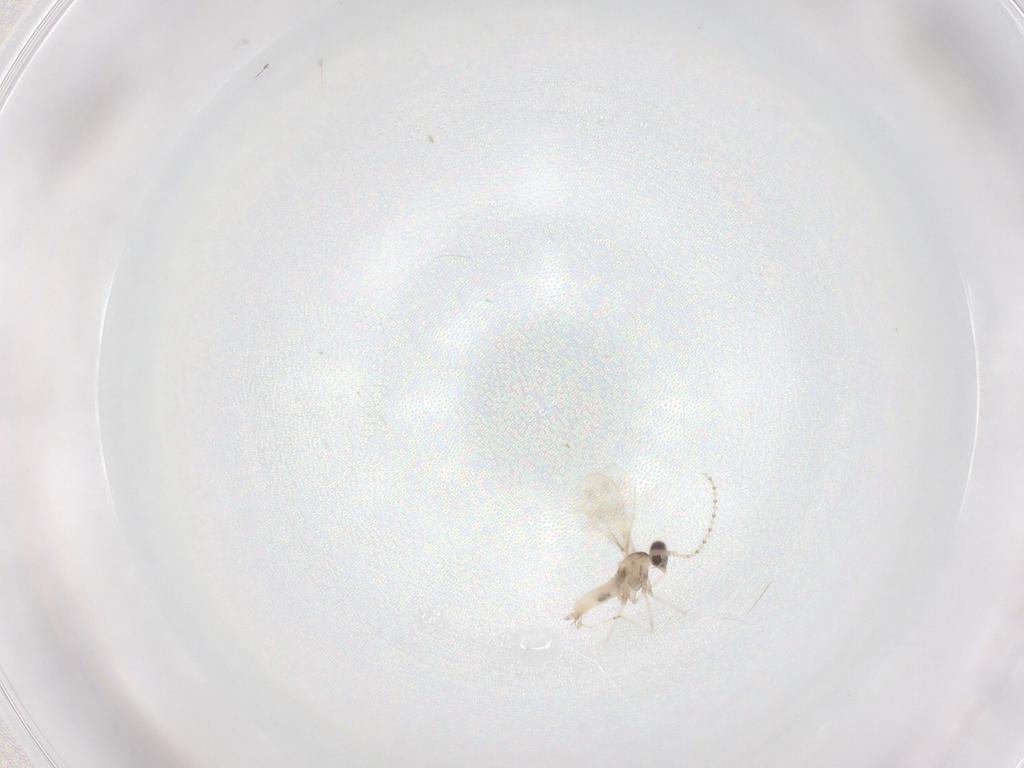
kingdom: Animalia
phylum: Arthropoda
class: Insecta
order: Diptera
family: Cecidomyiidae
